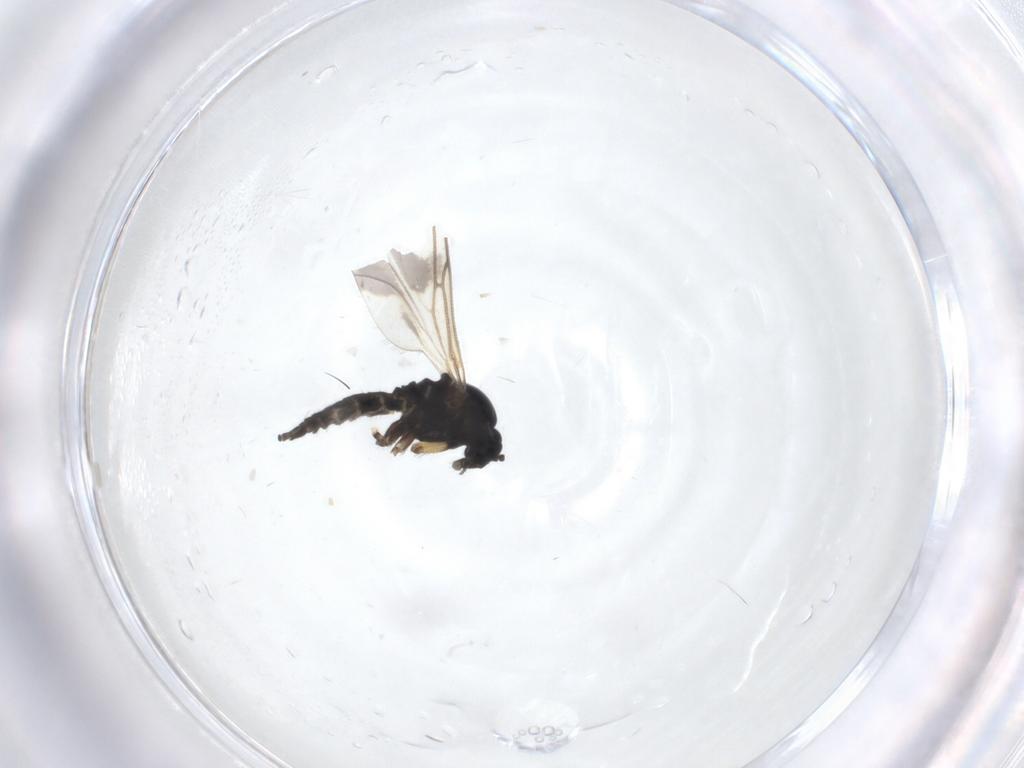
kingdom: Animalia
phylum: Arthropoda
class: Insecta
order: Diptera
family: Sciaridae
